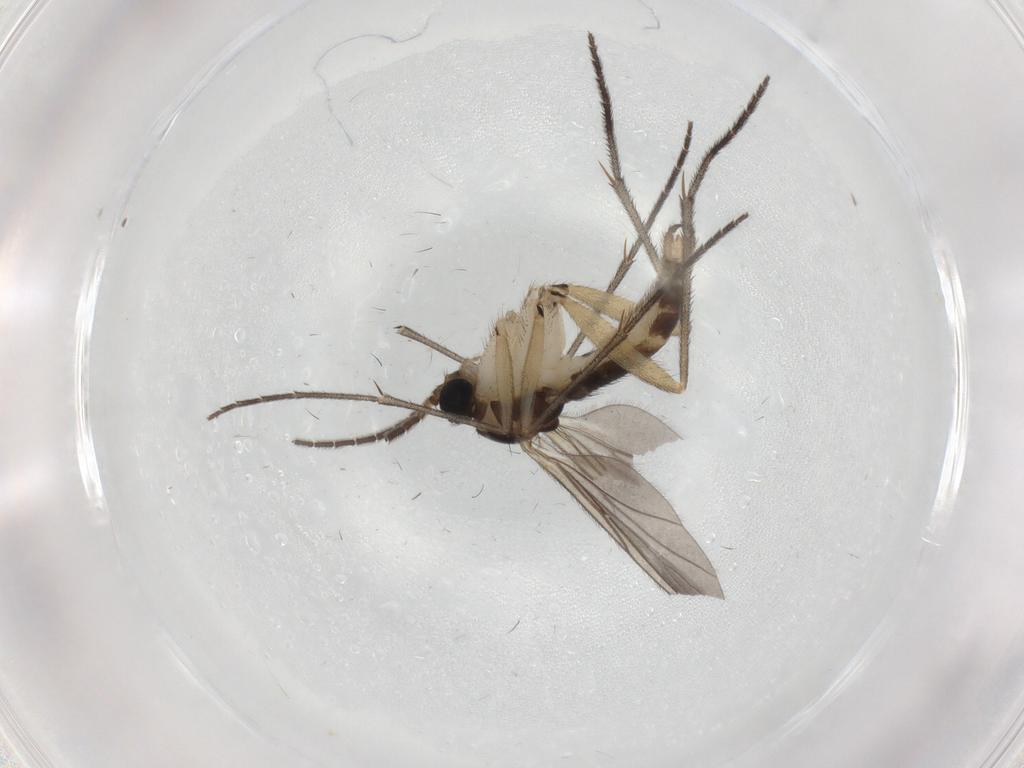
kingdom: Animalia
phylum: Arthropoda
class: Insecta
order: Diptera
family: Sciaridae
